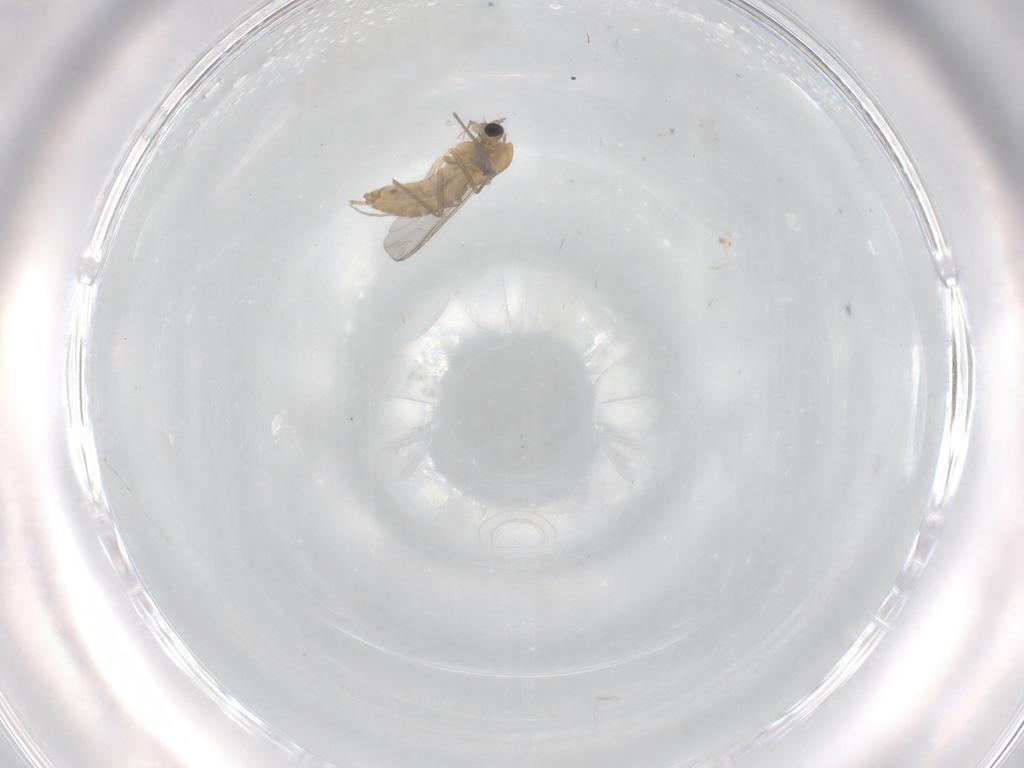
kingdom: Animalia
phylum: Arthropoda
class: Insecta
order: Diptera
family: Chironomidae
